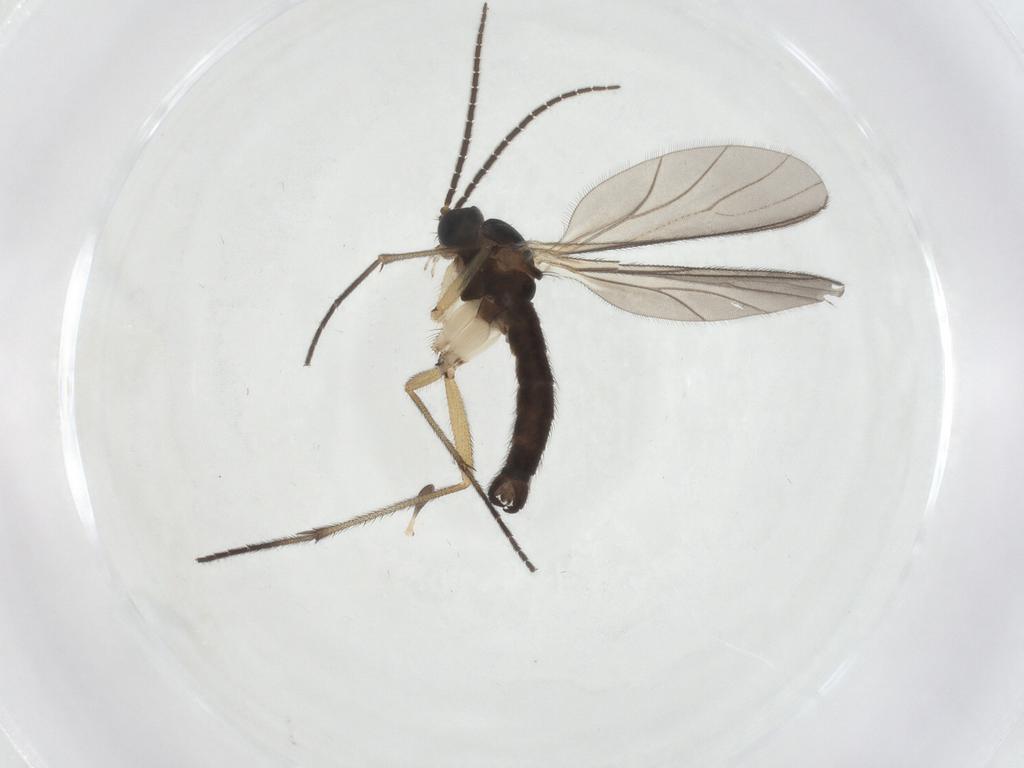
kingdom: Animalia
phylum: Arthropoda
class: Insecta
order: Diptera
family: Sciaridae
